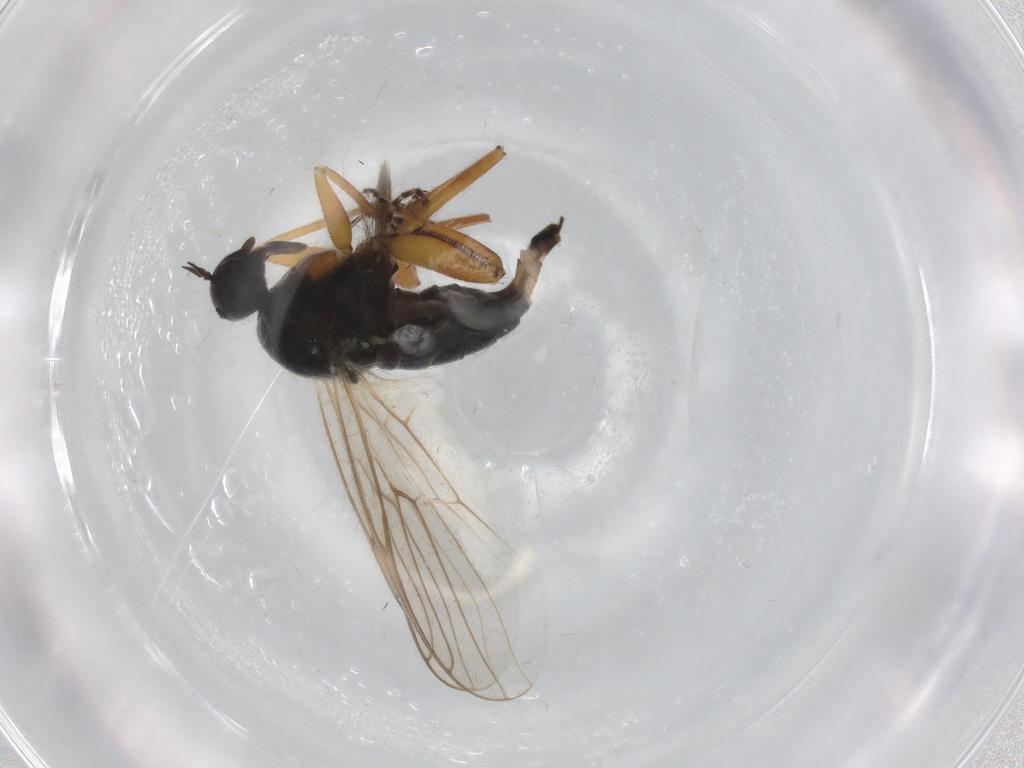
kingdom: Animalia
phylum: Arthropoda
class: Insecta
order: Diptera
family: Hybotidae
